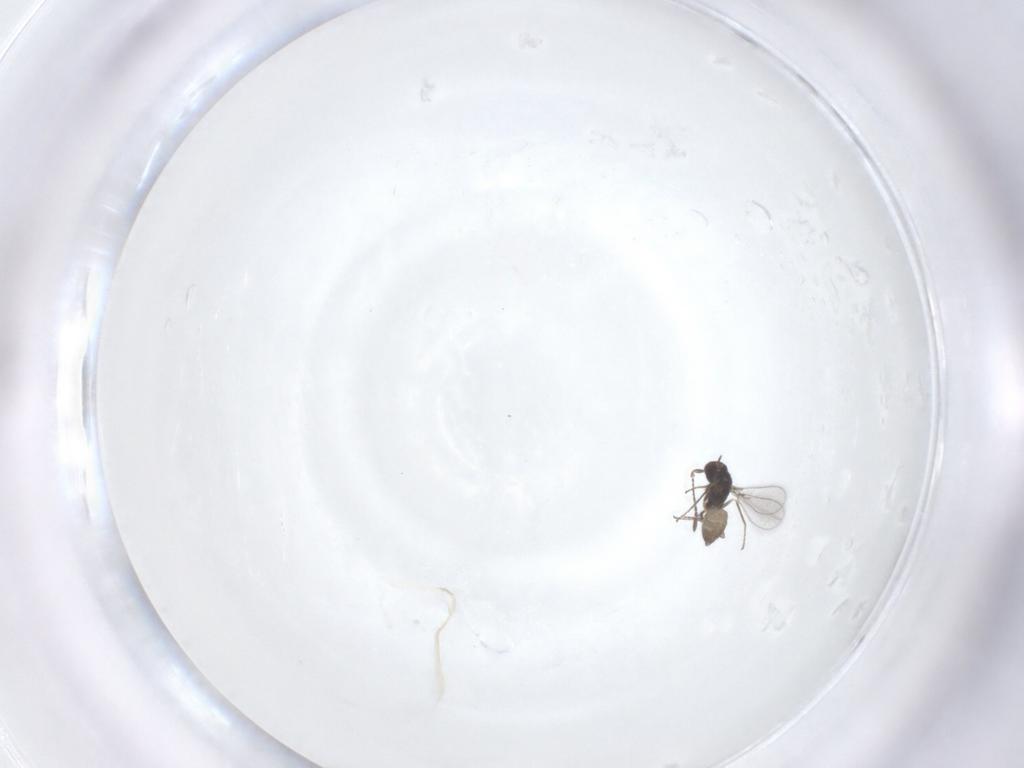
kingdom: Animalia
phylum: Arthropoda
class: Insecta
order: Hymenoptera
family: Mymaridae
